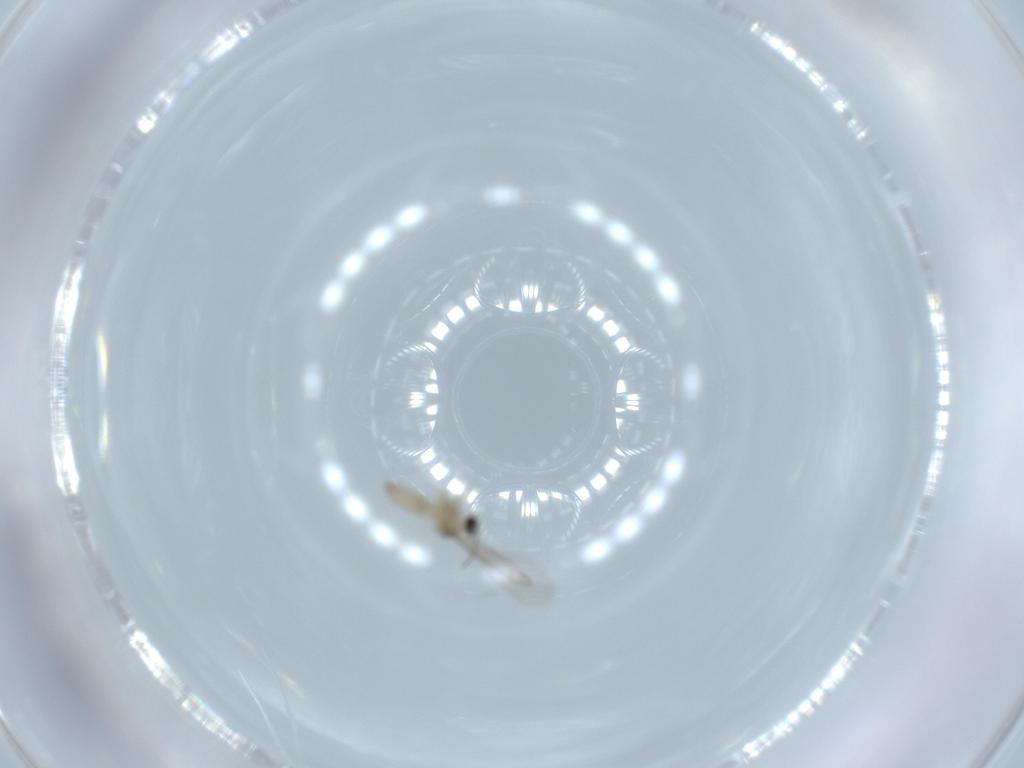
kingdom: Animalia
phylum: Arthropoda
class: Insecta
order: Diptera
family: Cecidomyiidae
